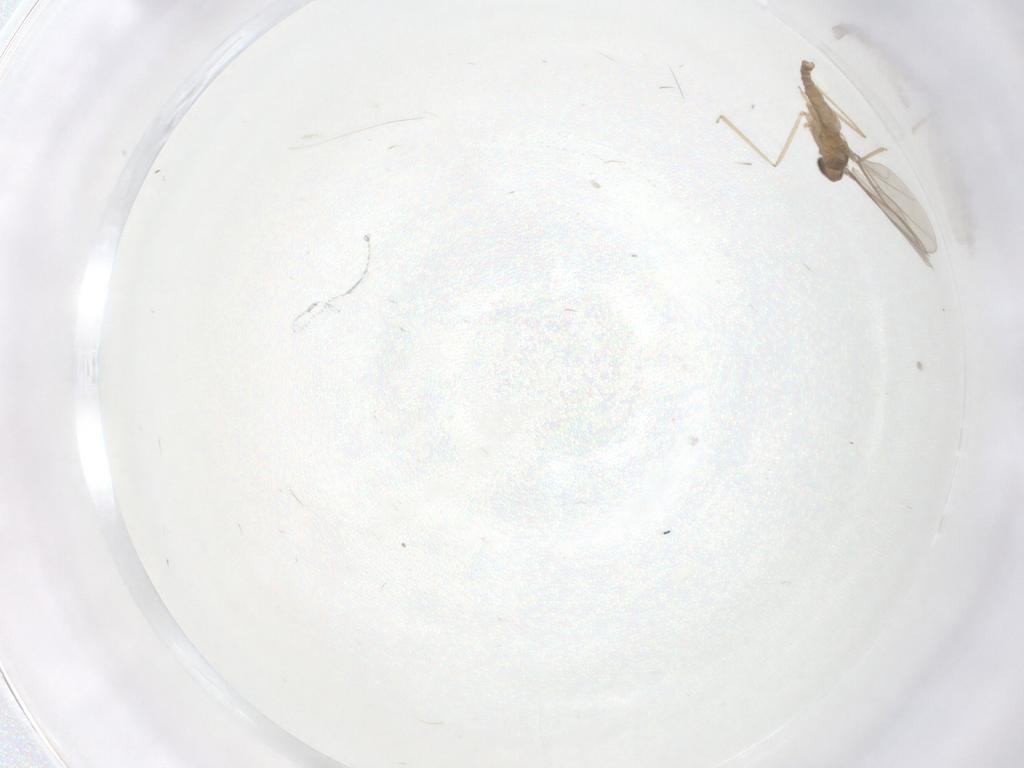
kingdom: Animalia
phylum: Arthropoda
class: Insecta
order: Diptera
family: Cecidomyiidae
